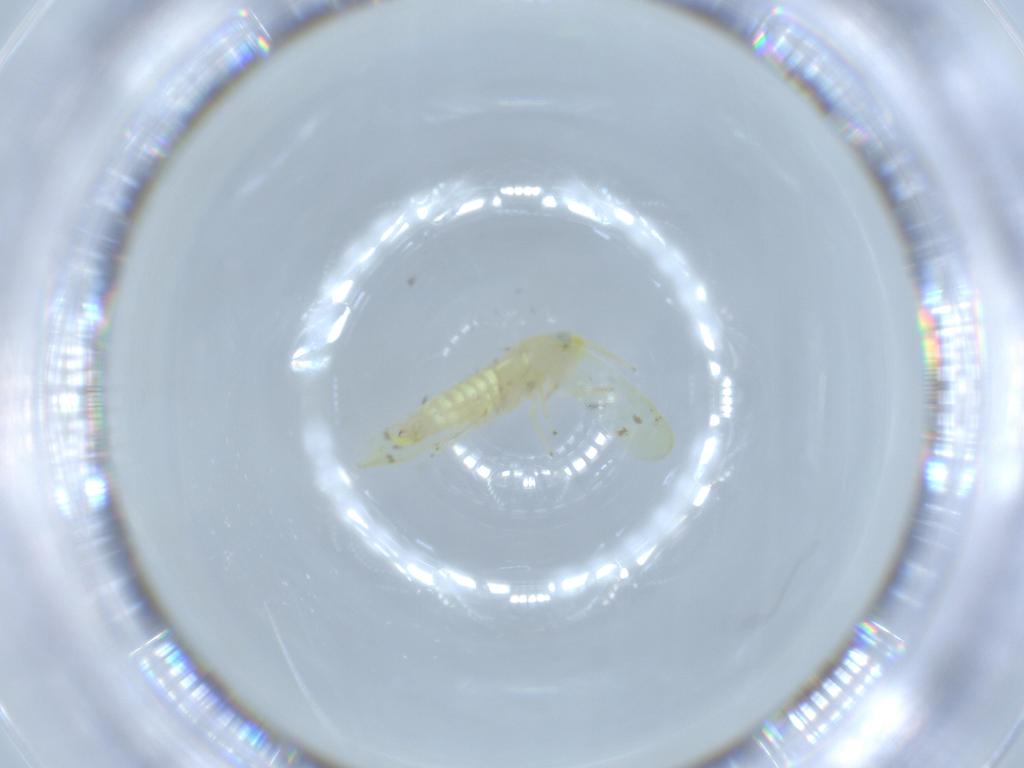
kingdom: Animalia
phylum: Arthropoda
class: Insecta
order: Hemiptera
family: Cicadellidae
